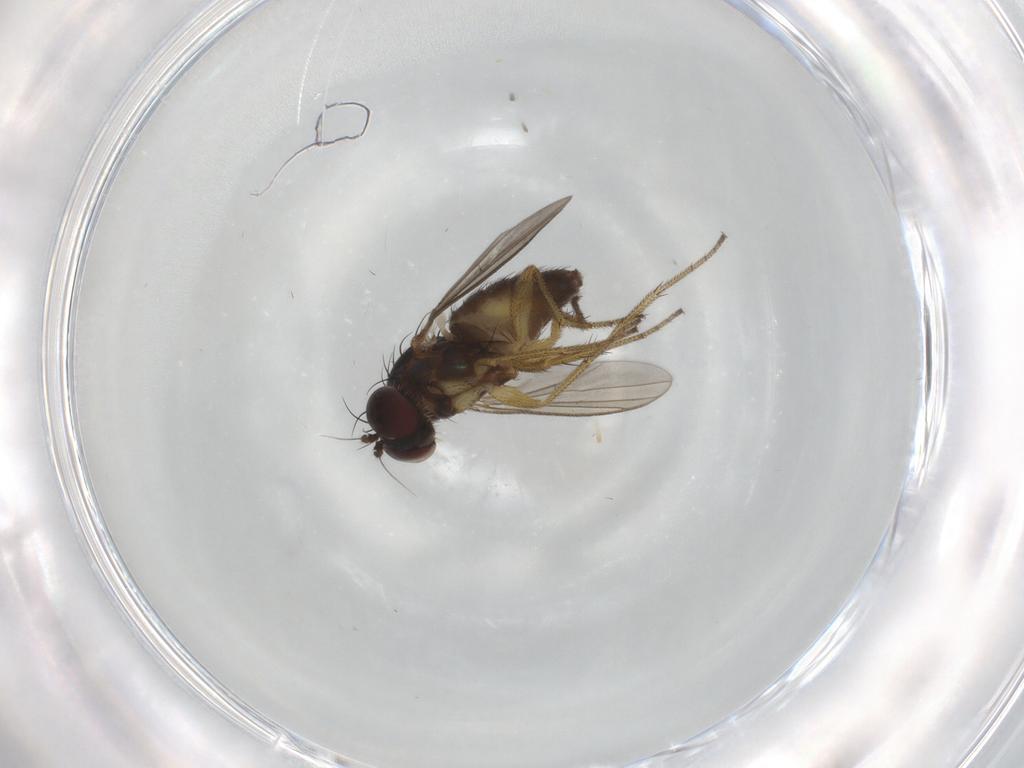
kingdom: Animalia
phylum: Arthropoda
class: Insecta
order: Diptera
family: Dolichopodidae
